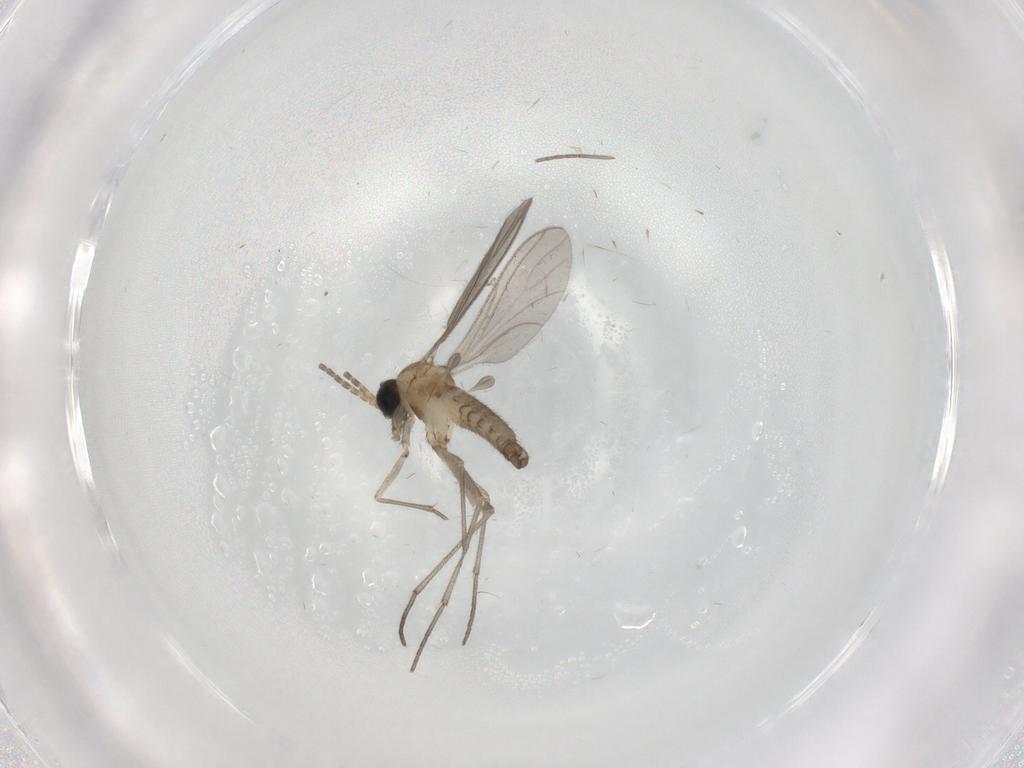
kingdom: Animalia
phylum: Arthropoda
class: Insecta
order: Diptera
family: Sciaridae
